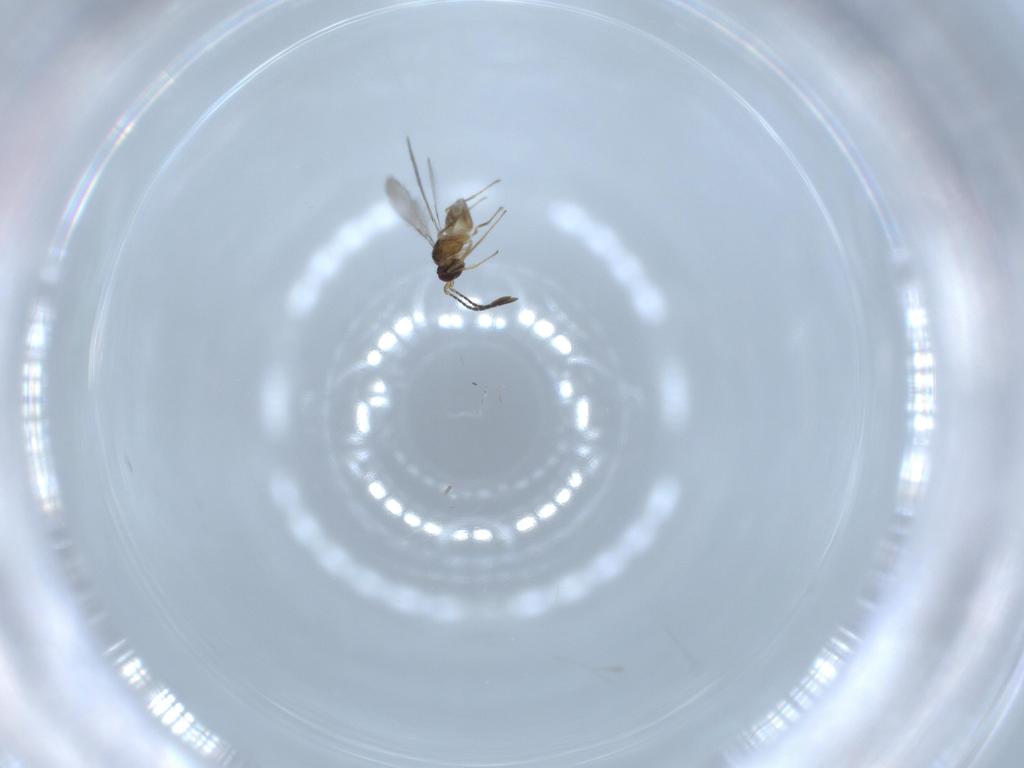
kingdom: Animalia
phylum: Arthropoda
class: Insecta
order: Hymenoptera
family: Mymaridae
